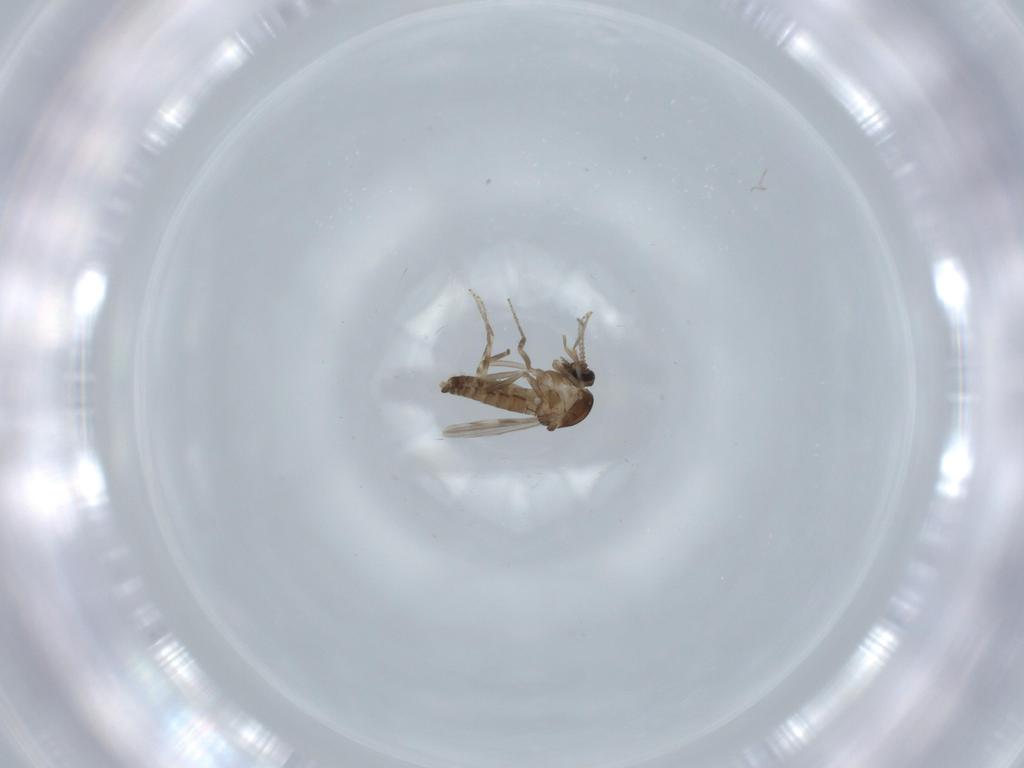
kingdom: Animalia
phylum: Arthropoda
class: Insecta
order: Diptera
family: Ceratopogonidae
